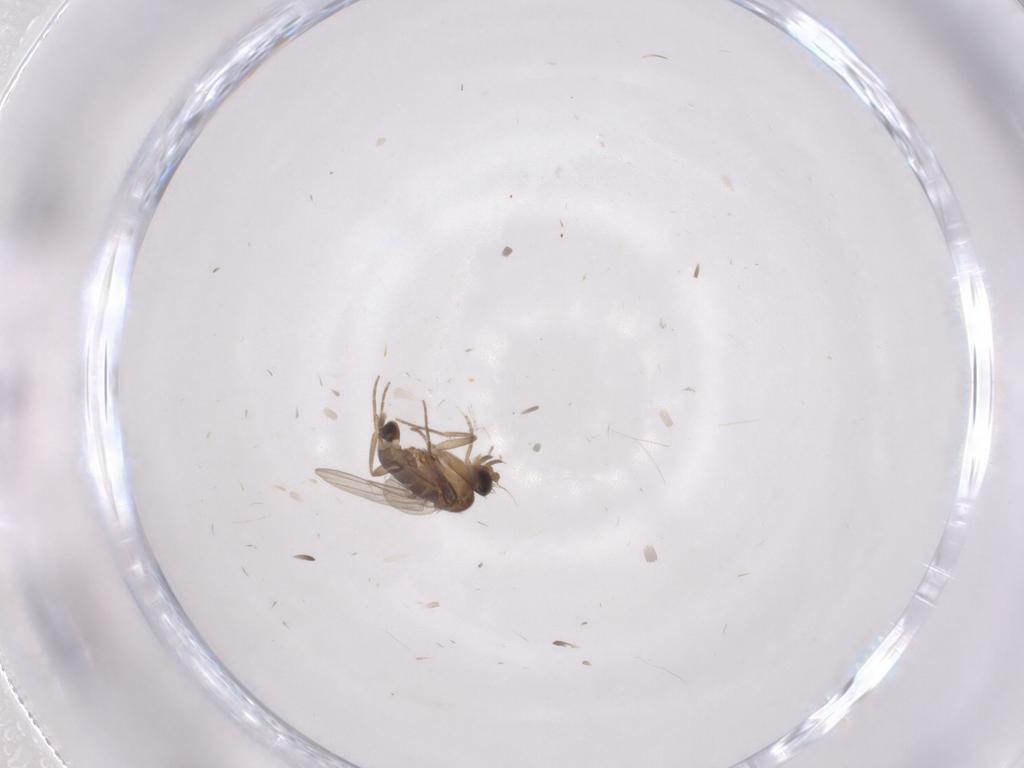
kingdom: Animalia
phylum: Arthropoda
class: Insecta
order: Diptera
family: Phoridae
